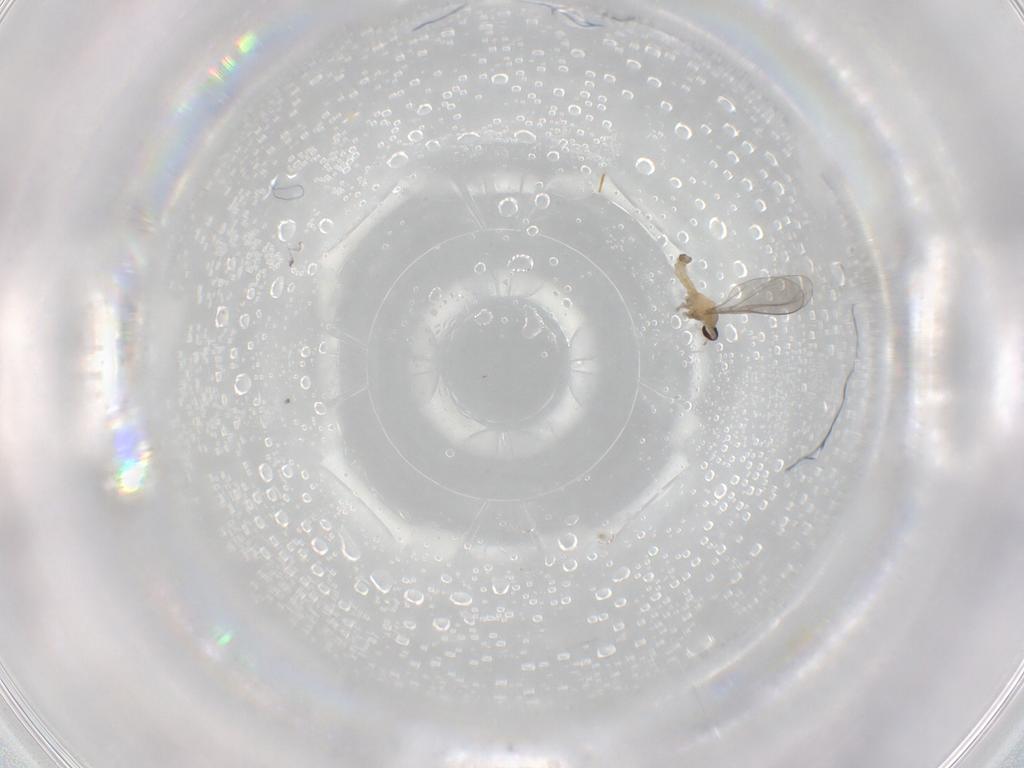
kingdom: Animalia
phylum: Arthropoda
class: Insecta
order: Diptera
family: Cecidomyiidae
